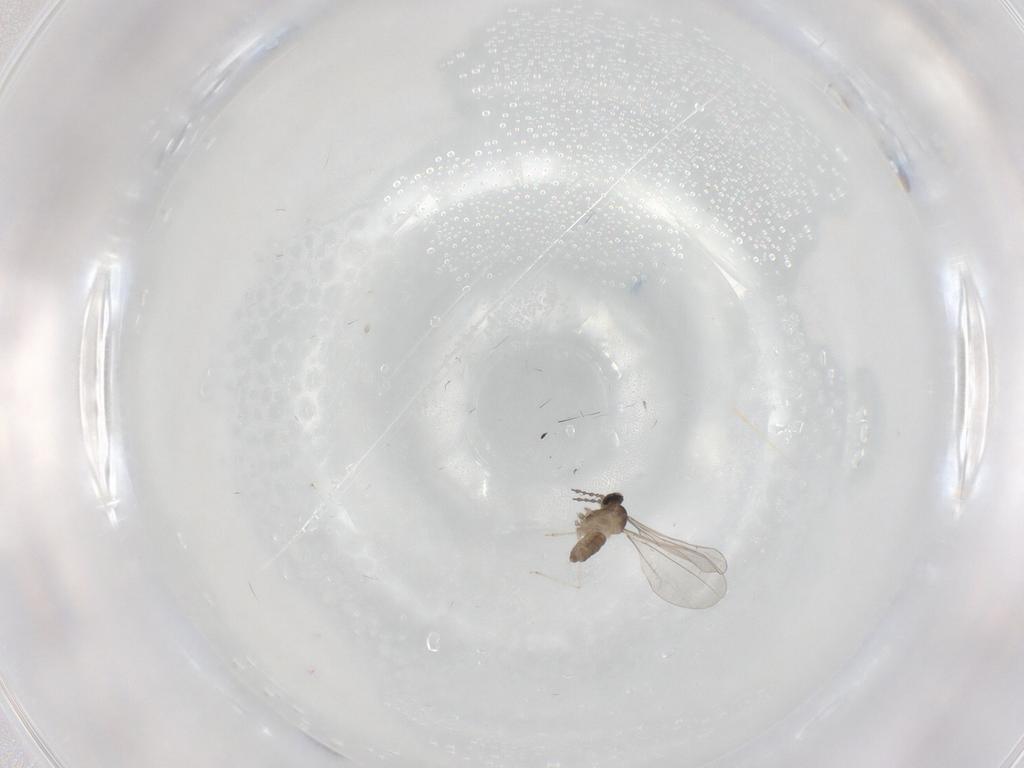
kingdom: Animalia
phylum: Arthropoda
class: Insecta
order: Diptera
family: Cecidomyiidae
